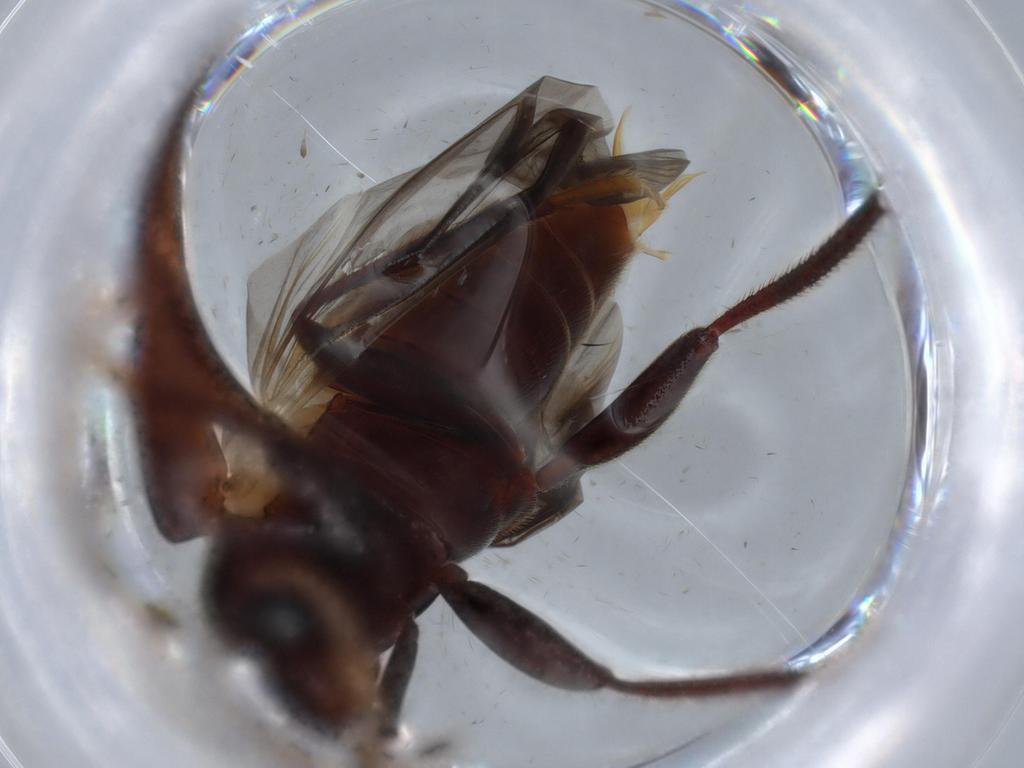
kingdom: Animalia
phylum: Arthropoda
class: Insecta
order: Coleoptera
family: Ptilodactylidae
